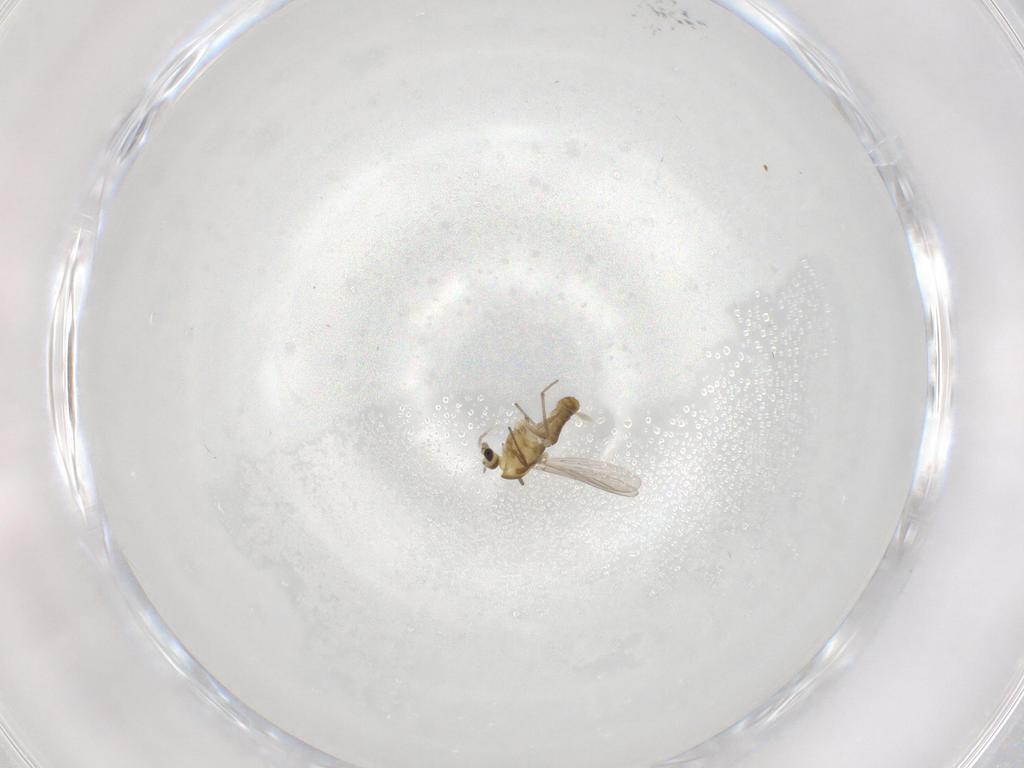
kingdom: Animalia
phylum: Arthropoda
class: Insecta
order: Diptera
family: Chironomidae
